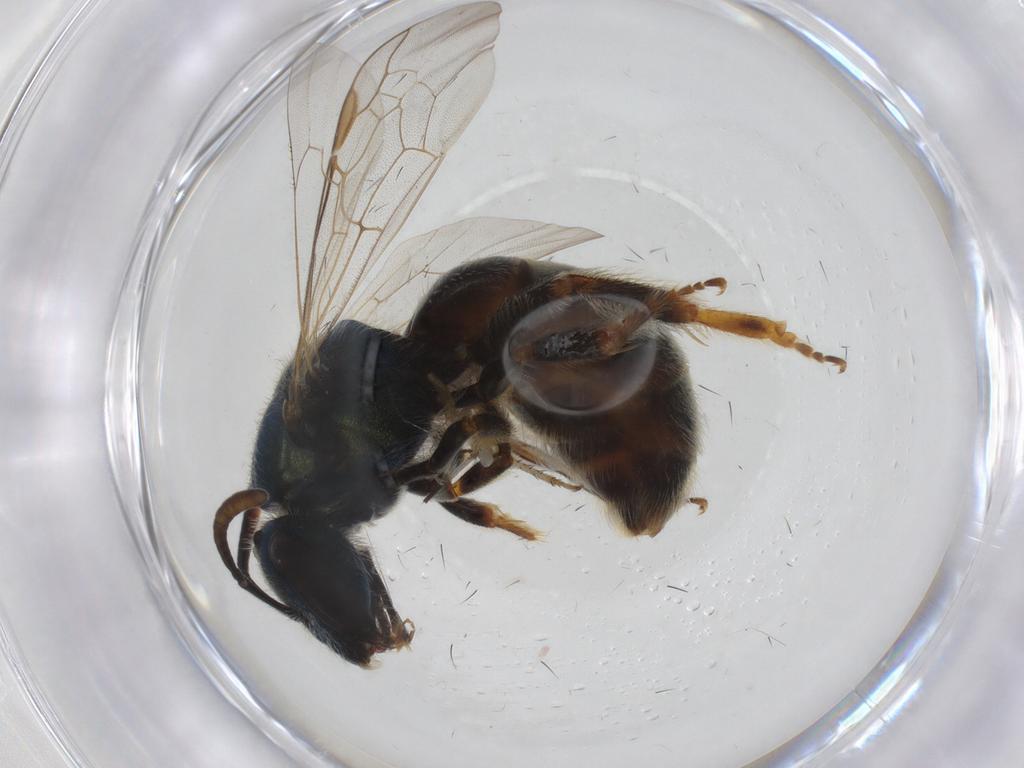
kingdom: Animalia
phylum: Arthropoda
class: Insecta
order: Hymenoptera
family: Halictidae
